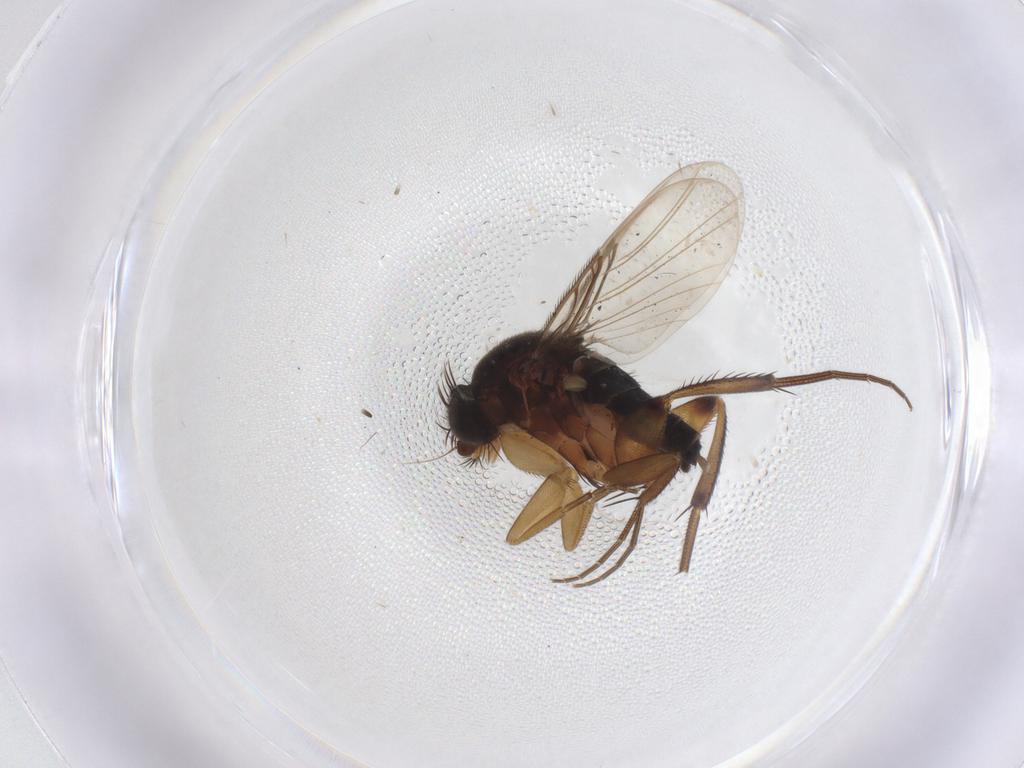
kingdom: Animalia
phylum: Arthropoda
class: Insecta
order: Diptera
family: Phoridae
